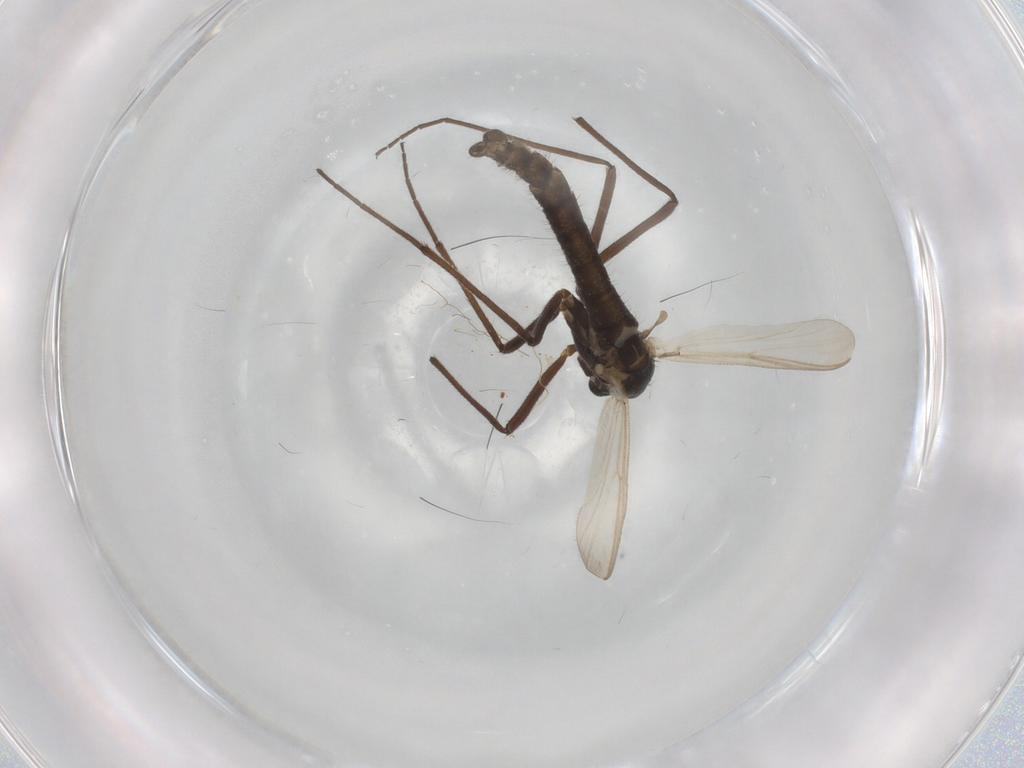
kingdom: Animalia
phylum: Arthropoda
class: Insecta
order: Diptera
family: Chironomidae
